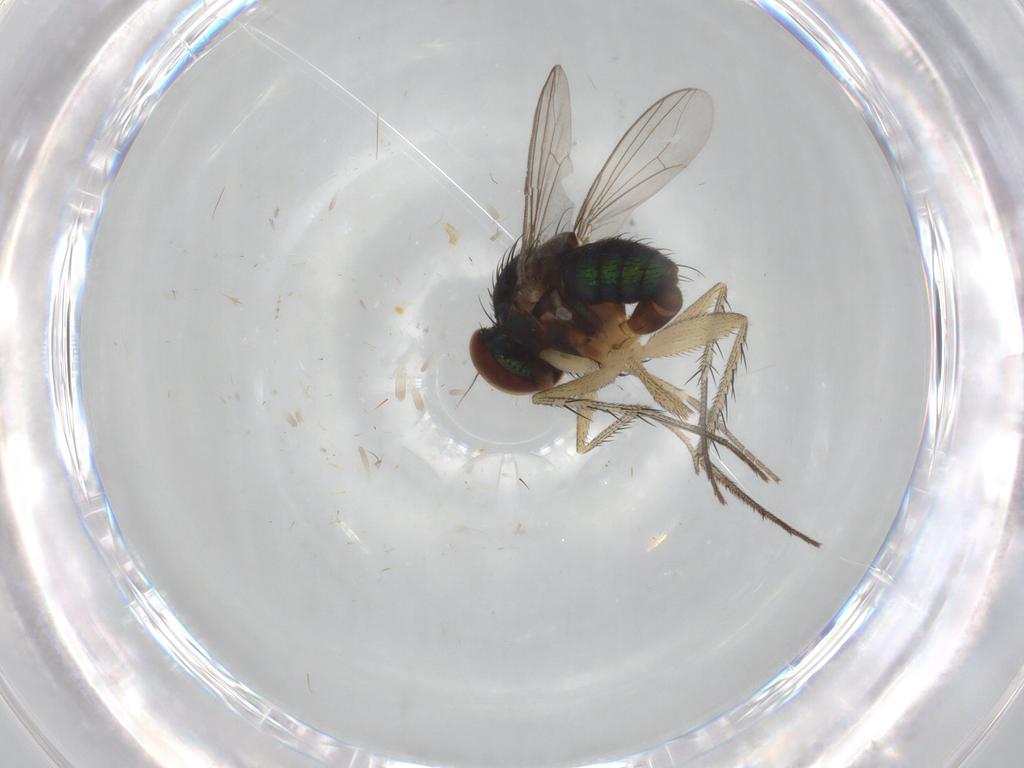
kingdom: Animalia
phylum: Arthropoda
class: Insecta
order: Diptera
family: Dolichopodidae
